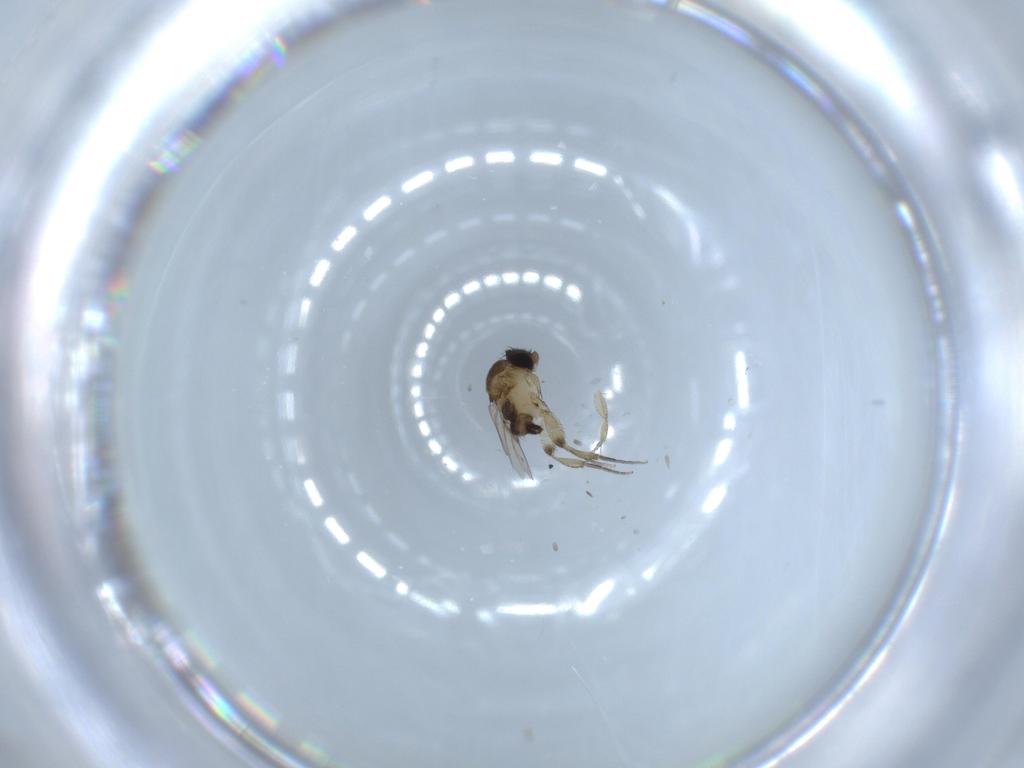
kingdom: Animalia
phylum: Arthropoda
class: Insecta
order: Diptera
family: Phoridae
